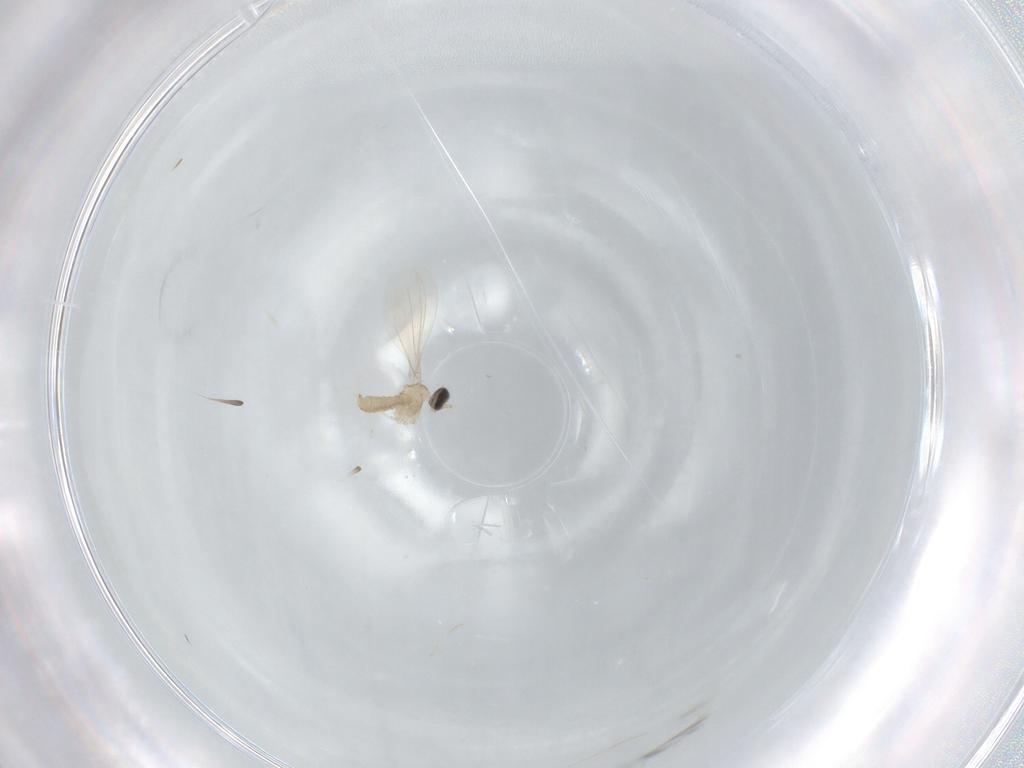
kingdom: Animalia
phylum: Arthropoda
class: Insecta
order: Diptera
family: Cecidomyiidae
